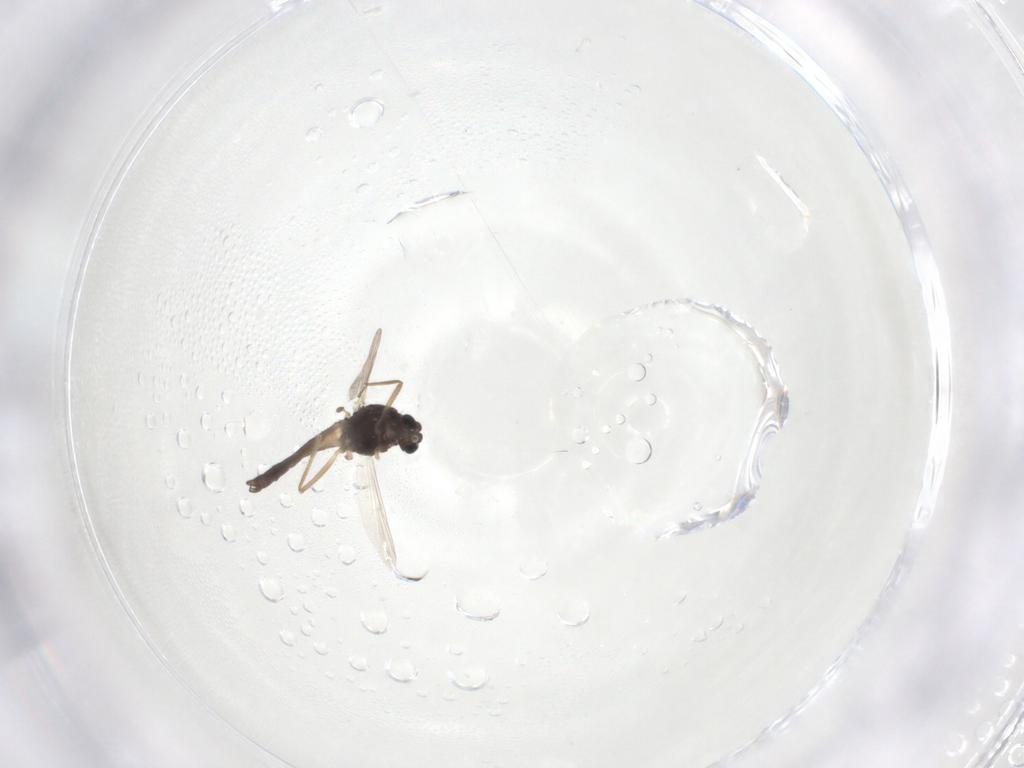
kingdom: Animalia
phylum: Arthropoda
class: Insecta
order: Diptera
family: Chironomidae
